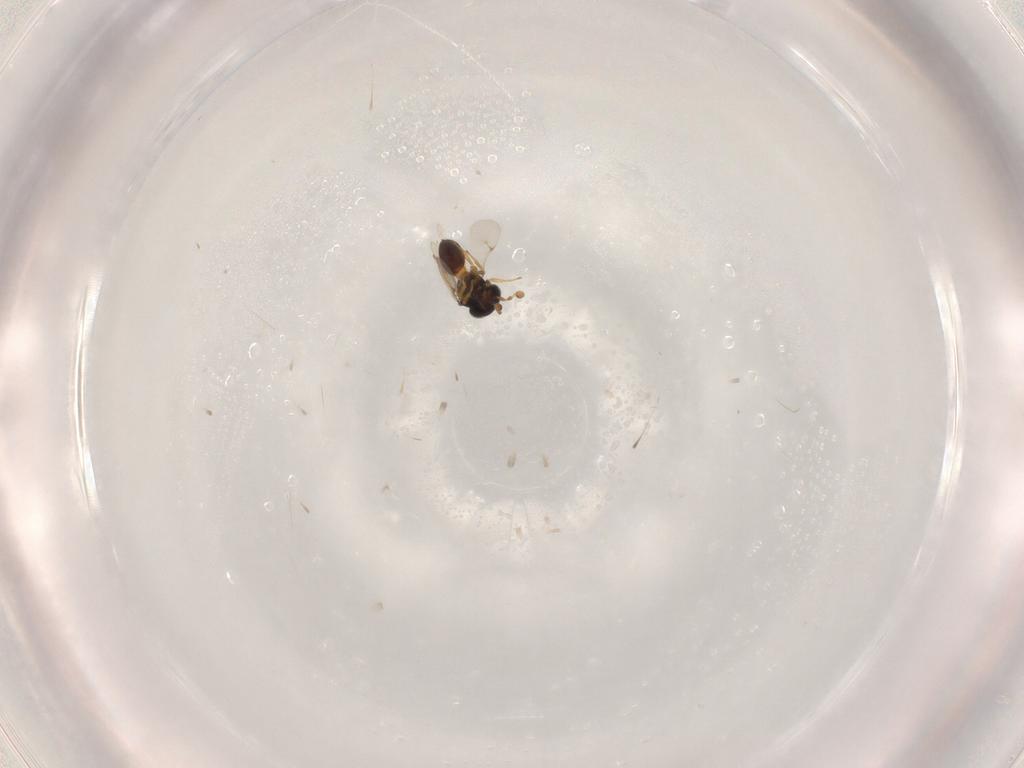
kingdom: Animalia
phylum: Arthropoda
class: Insecta
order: Hymenoptera
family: Scelionidae
